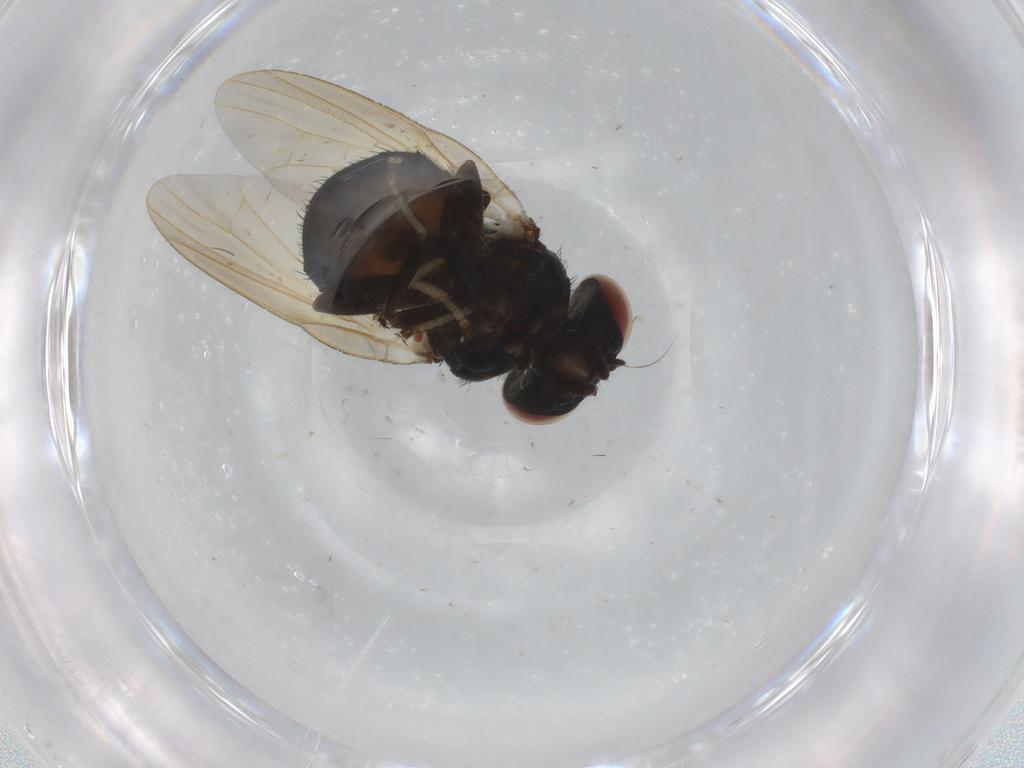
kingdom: Animalia
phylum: Arthropoda
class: Insecta
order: Diptera
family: Lonchaeidae
